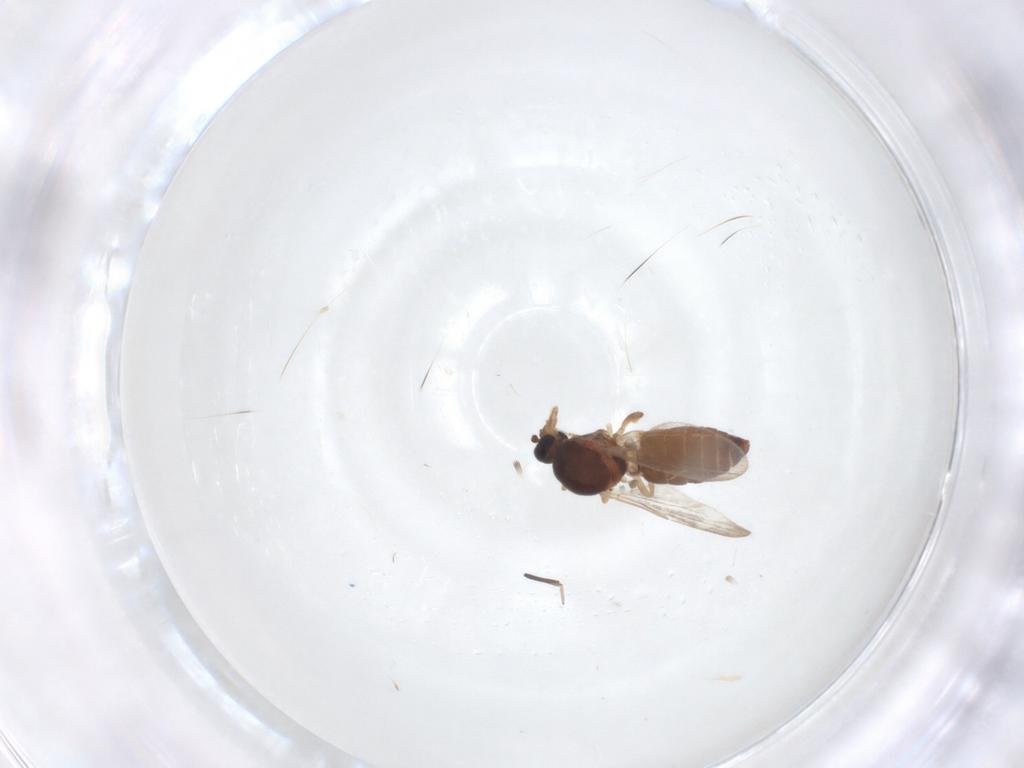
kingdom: Animalia
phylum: Arthropoda
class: Insecta
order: Diptera
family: Ceratopogonidae
